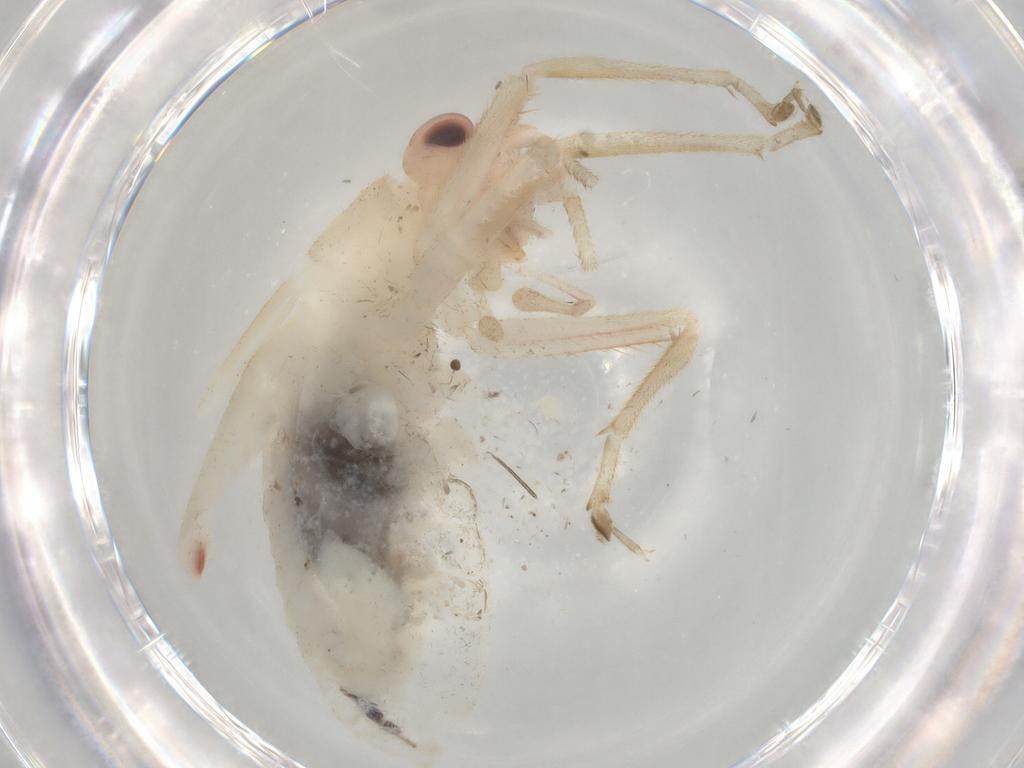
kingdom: Animalia
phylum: Arthropoda
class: Insecta
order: Orthoptera
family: Trigonidiidae
